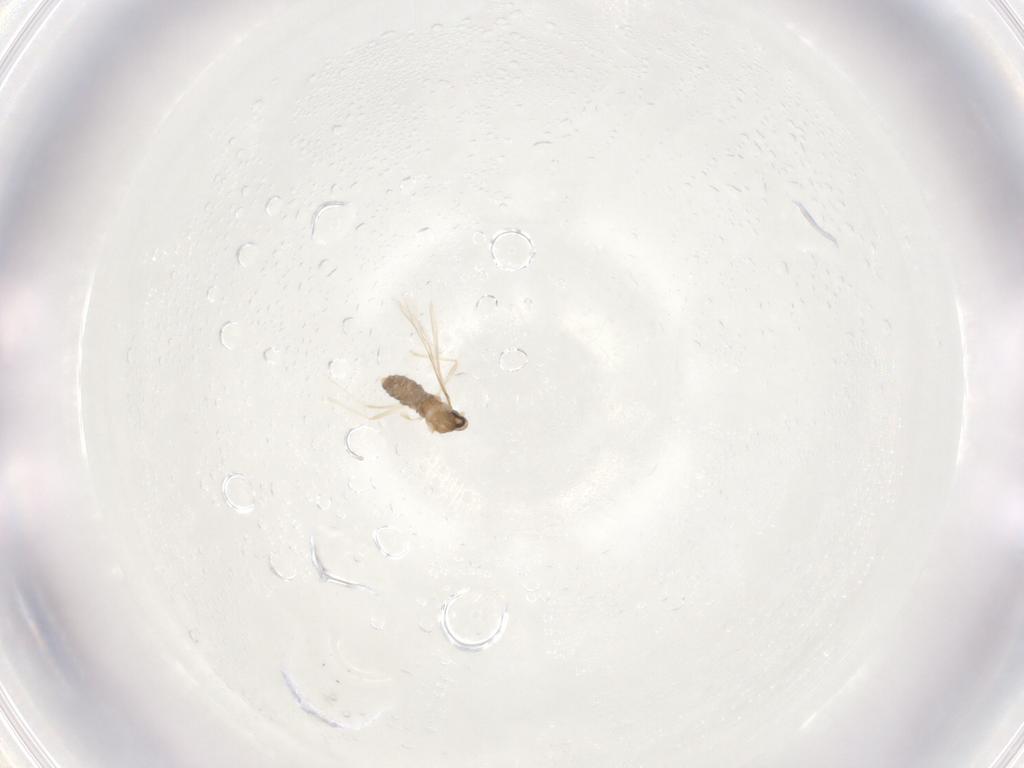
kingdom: Animalia
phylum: Arthropoda
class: Insecta
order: Diptera
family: Cecidomyiidae
